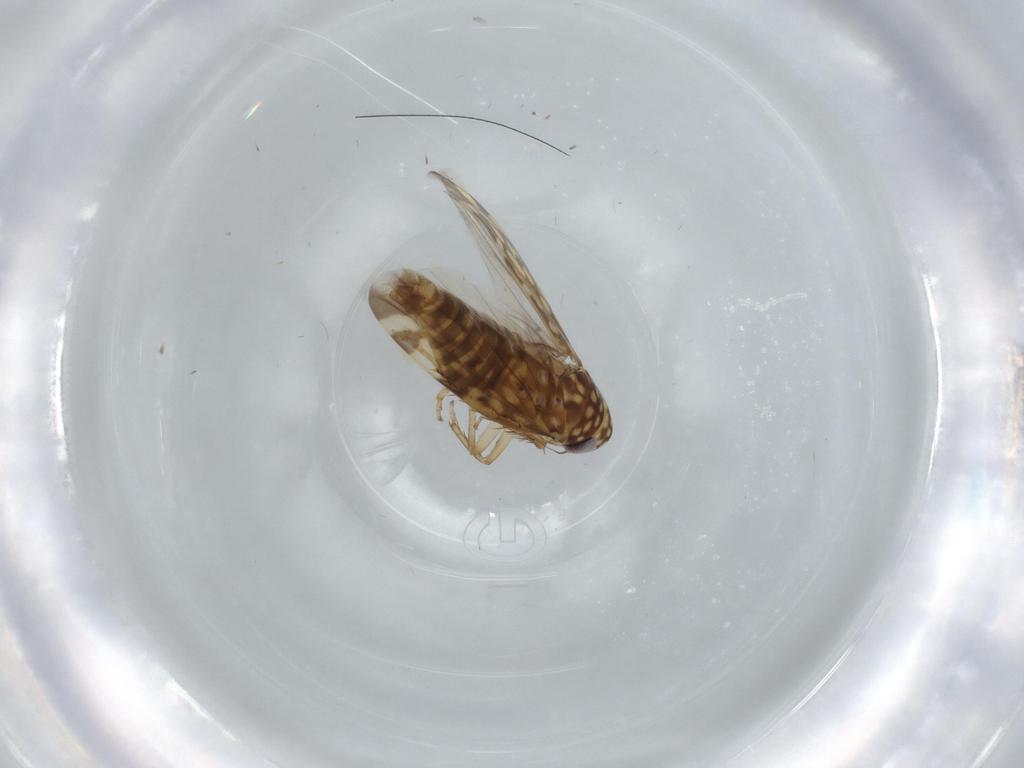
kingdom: Animalia
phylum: Arthropoda
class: Insecta
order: Hemiptera
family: Cicadellidae
